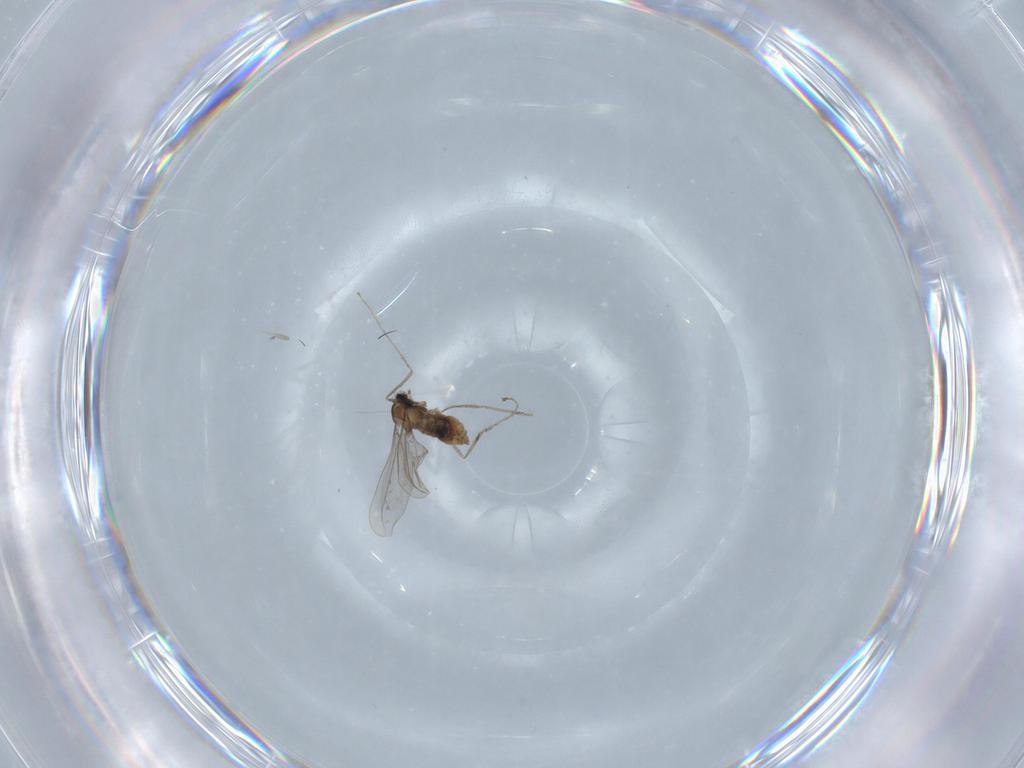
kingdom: Animalia
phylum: Arthropoda
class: Insecta
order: Diptera
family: Cecidomyiidae
